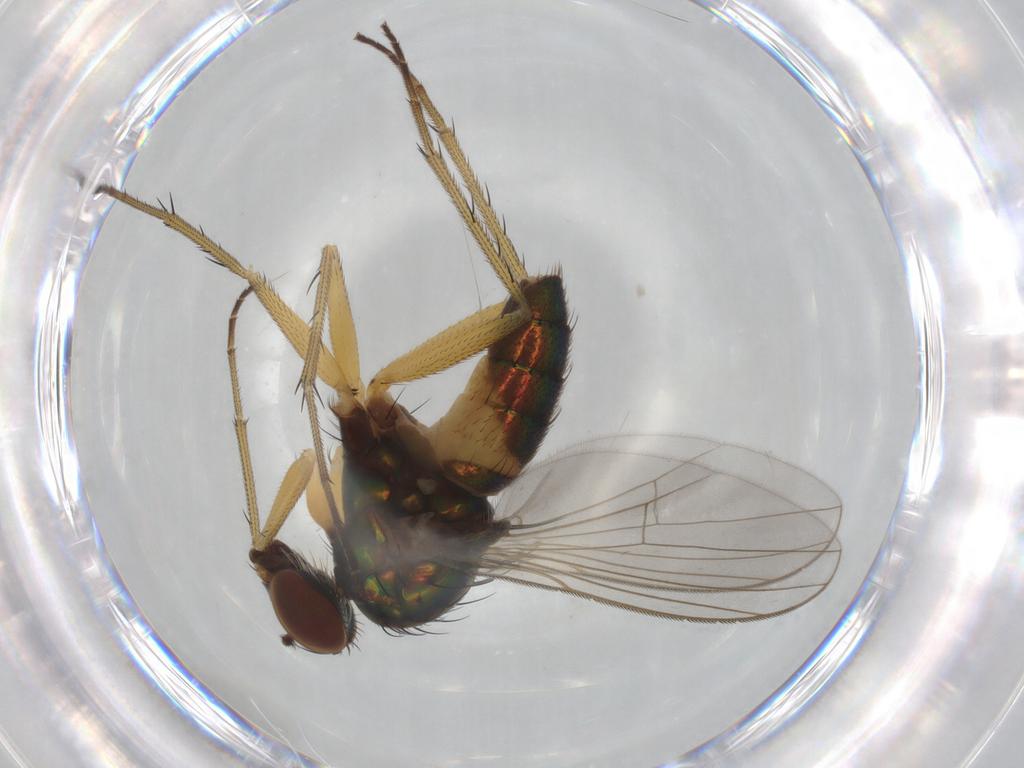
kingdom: Animalia
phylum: Arthropoda
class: Insecta
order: Diptera
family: Dolichopodidae
